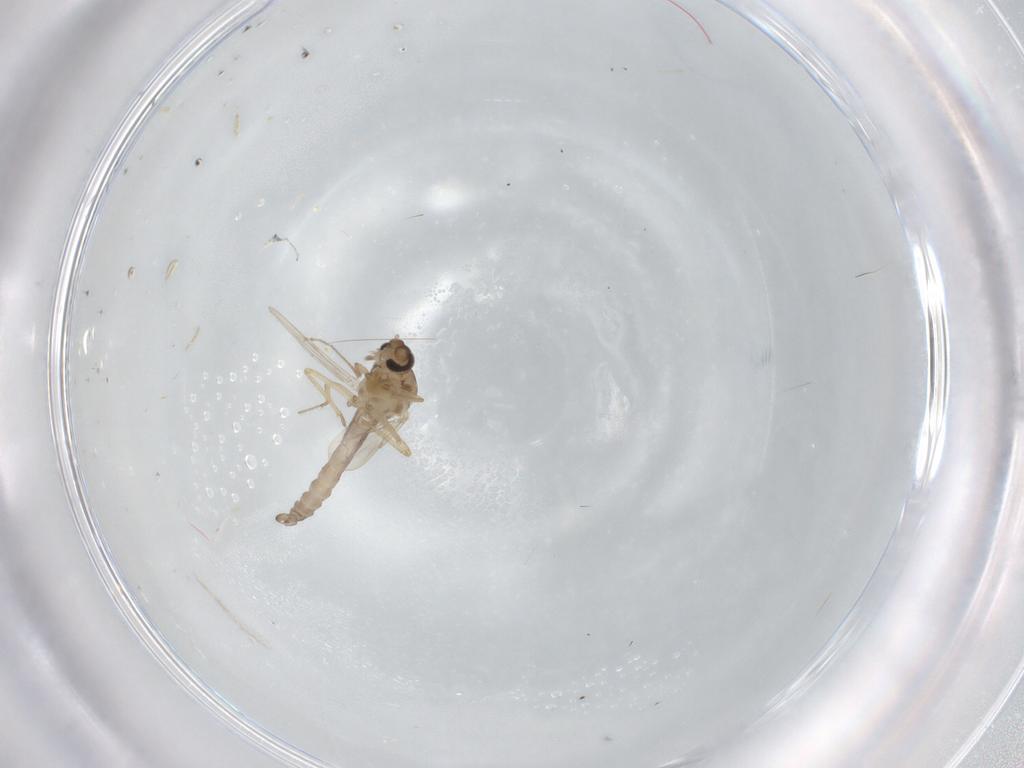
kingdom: Animalia
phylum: Arthropoda
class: Insecta
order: Diptera
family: Ceratopogonidae
